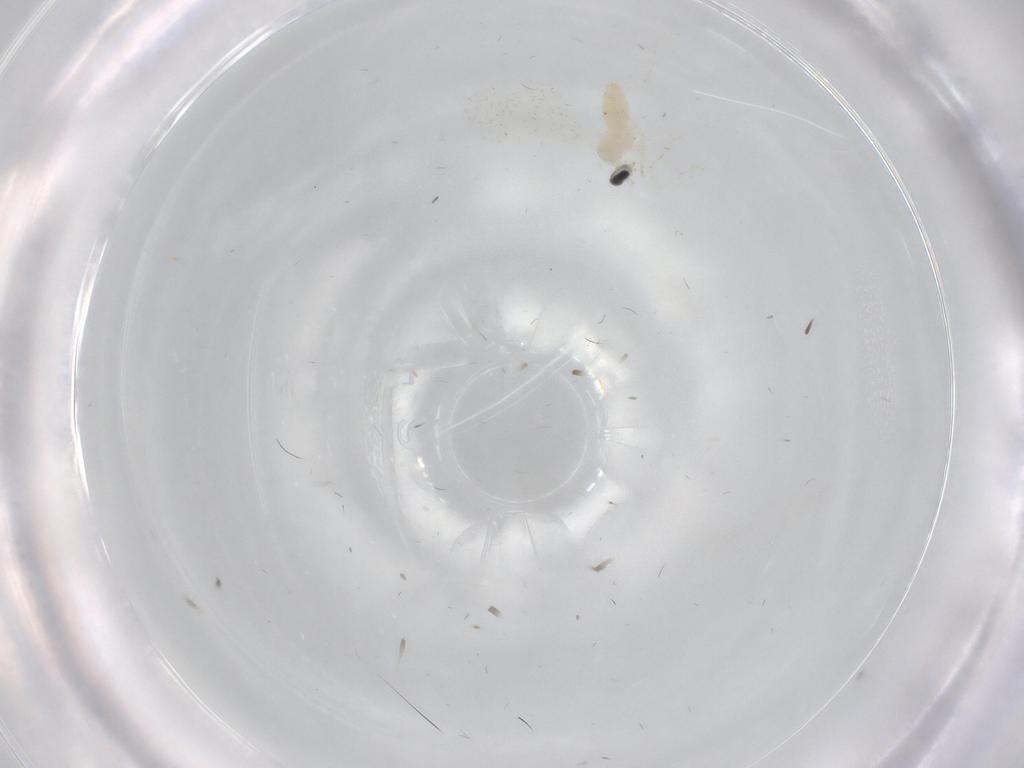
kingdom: Animalia
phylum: Arthropoda
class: Insecta
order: Diptera
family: Cecidomyiidae
